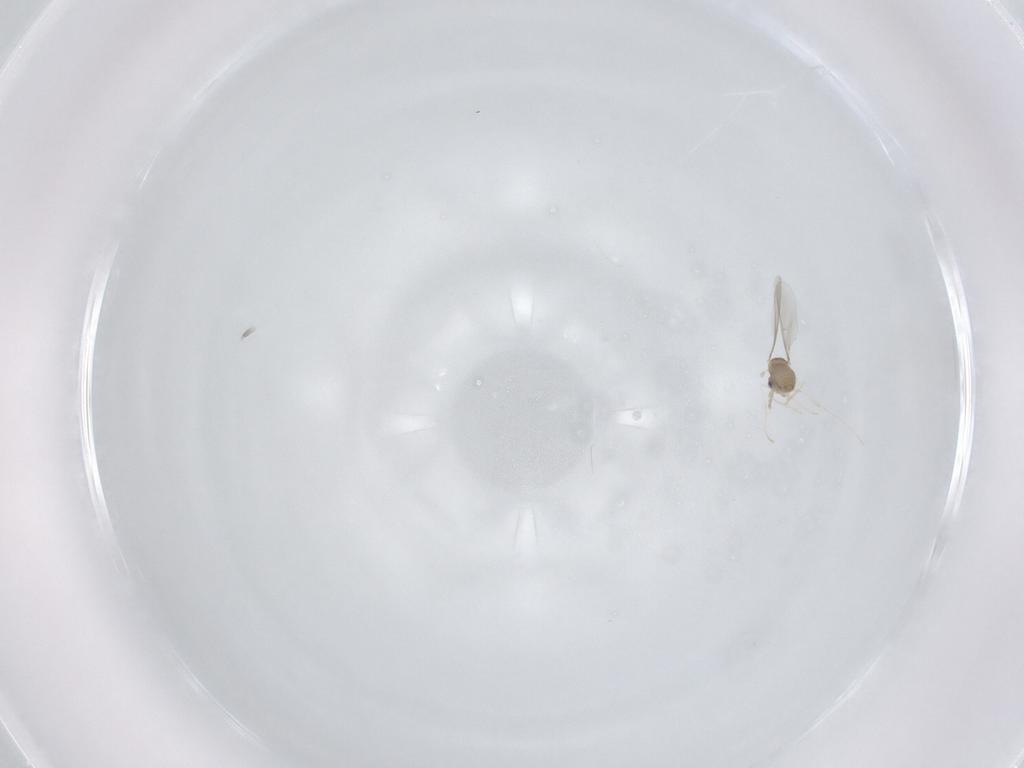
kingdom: Animalia
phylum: Arthropoda
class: Insecta
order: Diptera
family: Cecidomyiidae
